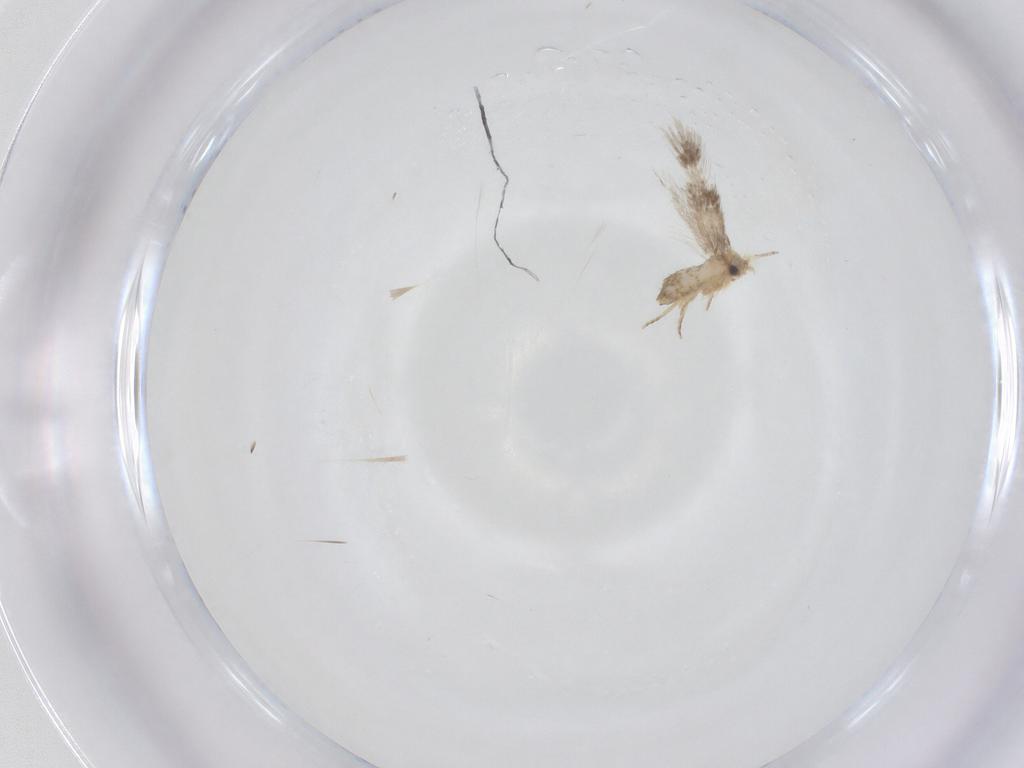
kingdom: Animalia
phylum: Arthropoda
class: Insecta
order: Lepidoptera
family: Nepticulidae
